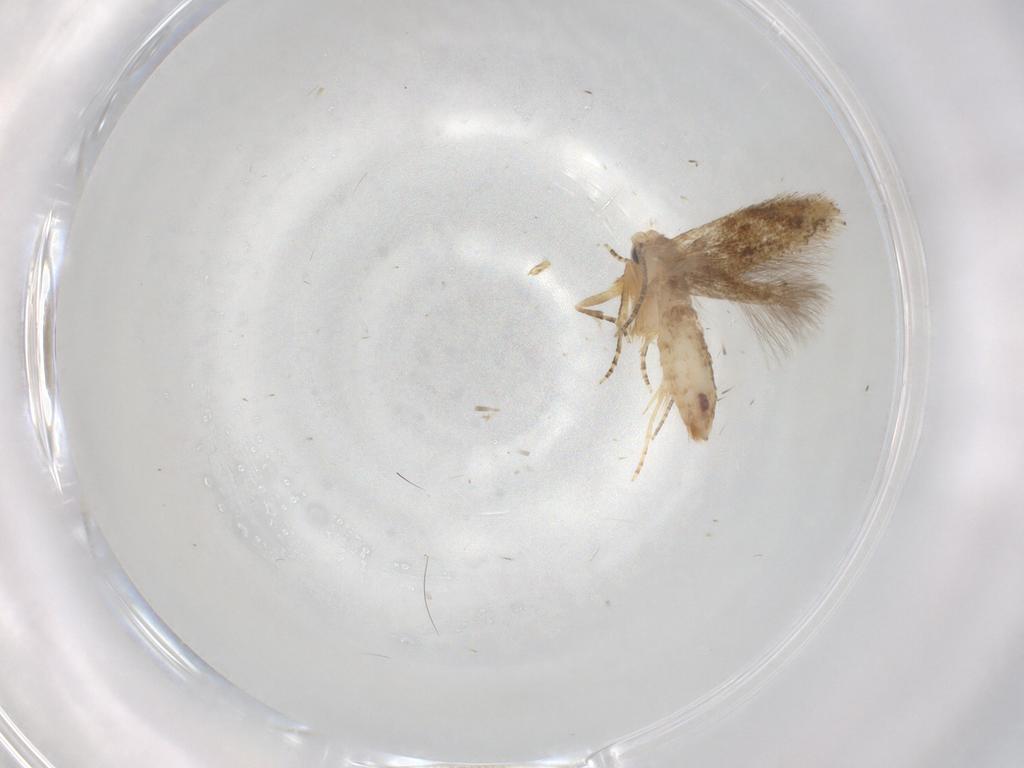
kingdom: Animalia
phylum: Arthropoda
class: Insecta
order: Lepidoptera
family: Bucculatricidae
